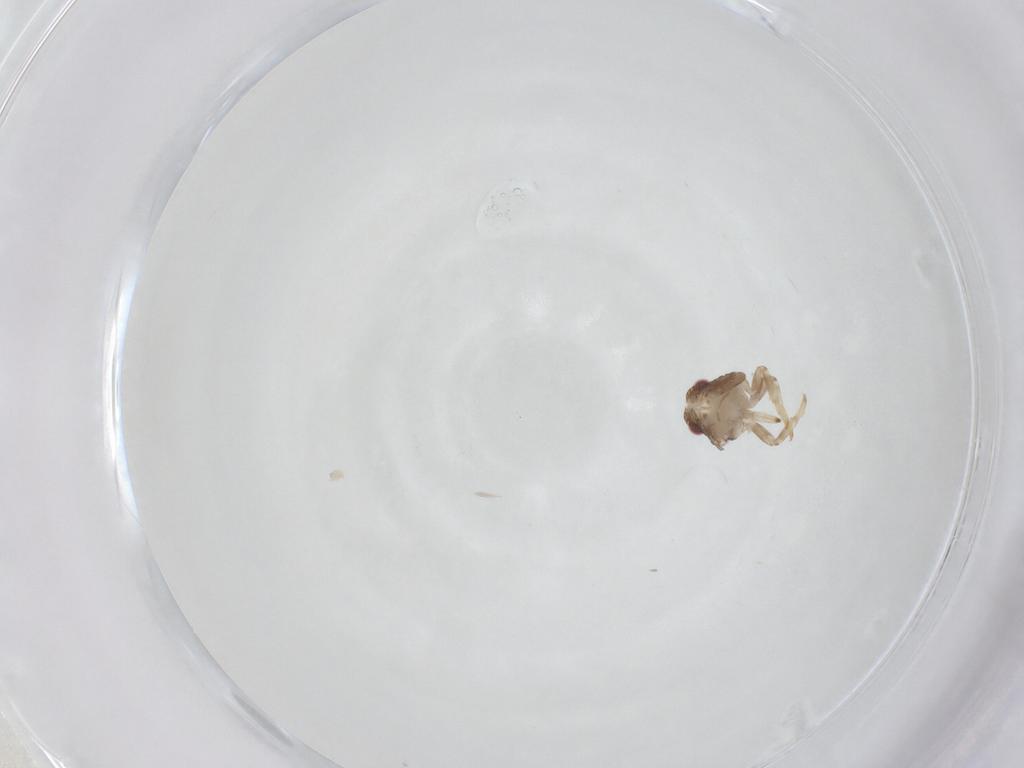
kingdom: Animalia
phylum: Arthropoda
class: Insecta
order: Hemiptera
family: Issidae
